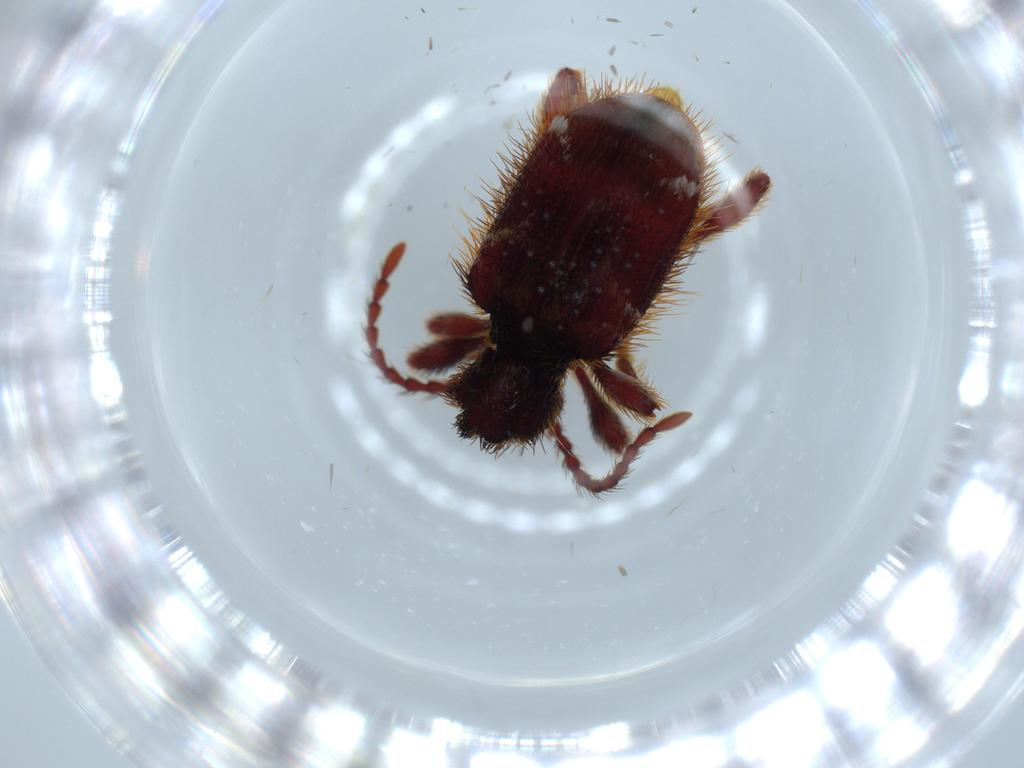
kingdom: Animalia
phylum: Arthropoda
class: Insecta
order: Coleoptera
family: Ptinidae
